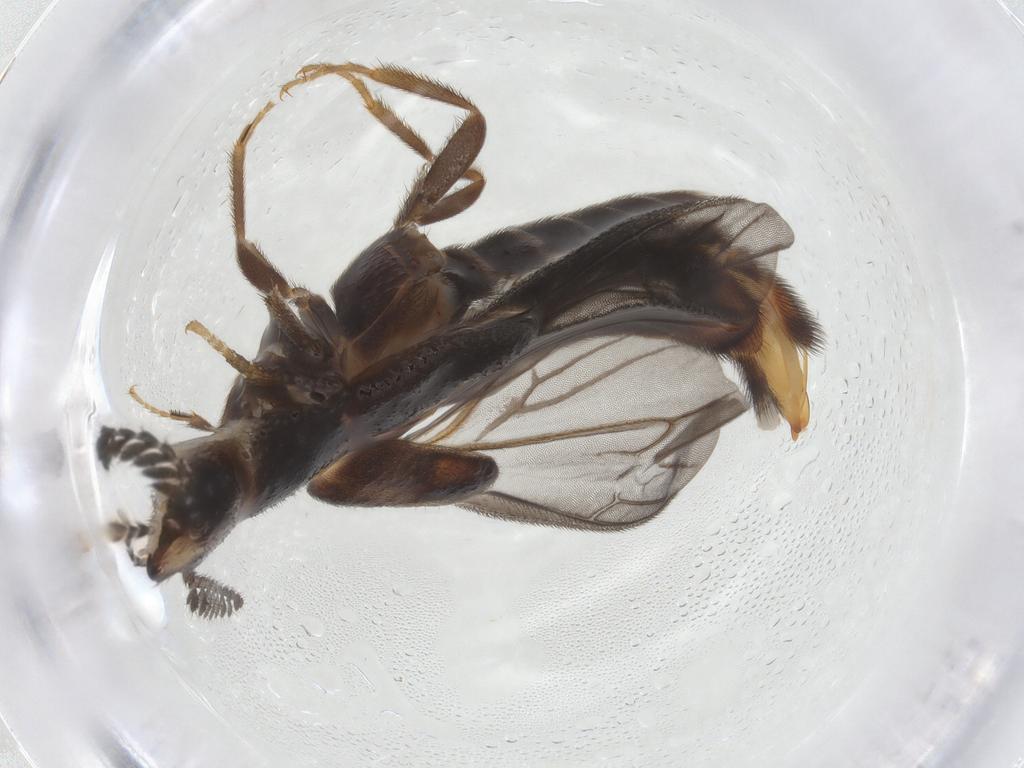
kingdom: Animalia
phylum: Arthropoda
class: Insecta
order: Coleoptera
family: Phengodidae
